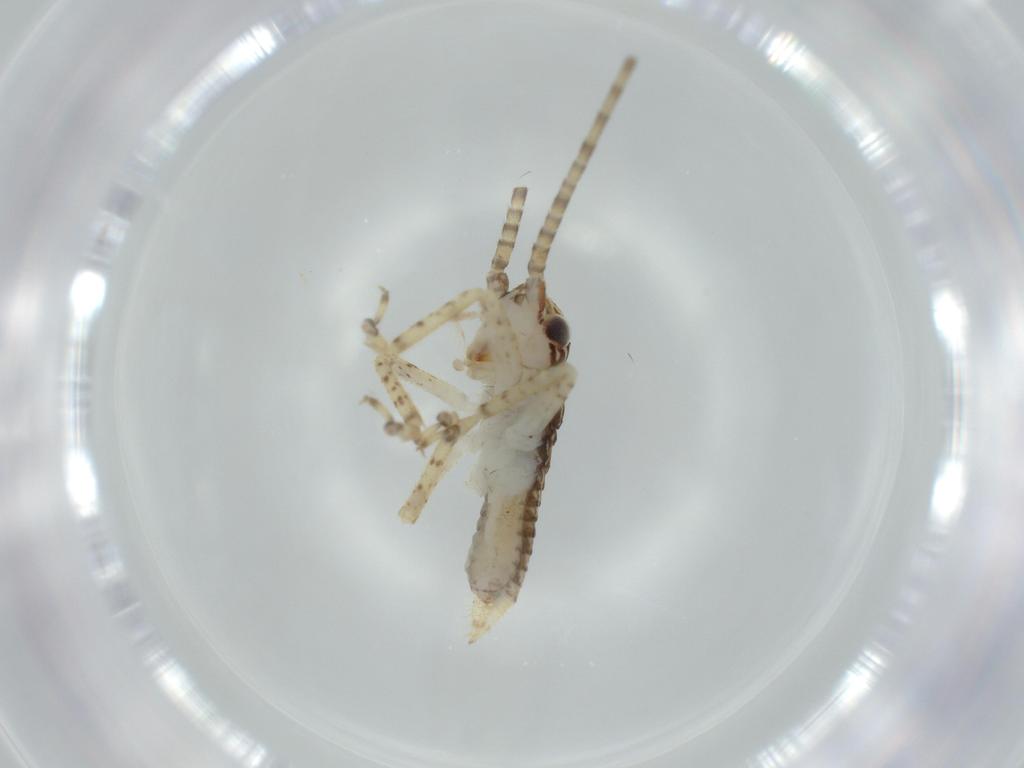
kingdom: Animalia
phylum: Arthropoda
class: Insecta
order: Orthoptera
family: Gryllidae
